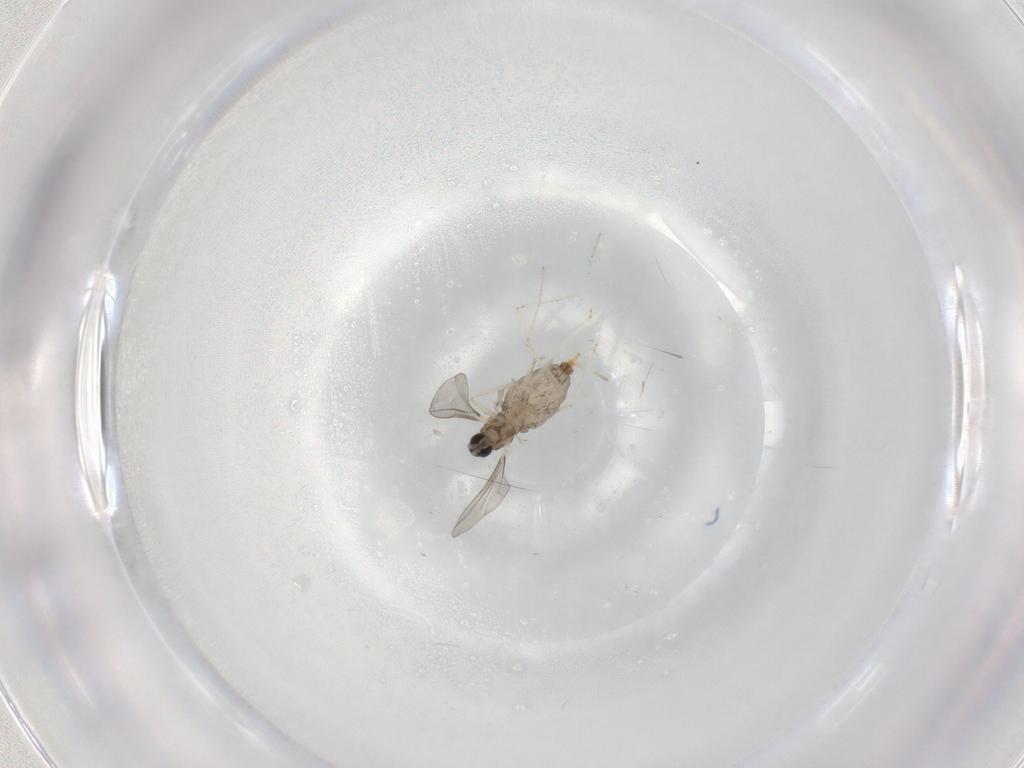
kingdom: Animalia
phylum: Arthropoda
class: Insecta
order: Diptera
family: Cecidomyiidae
